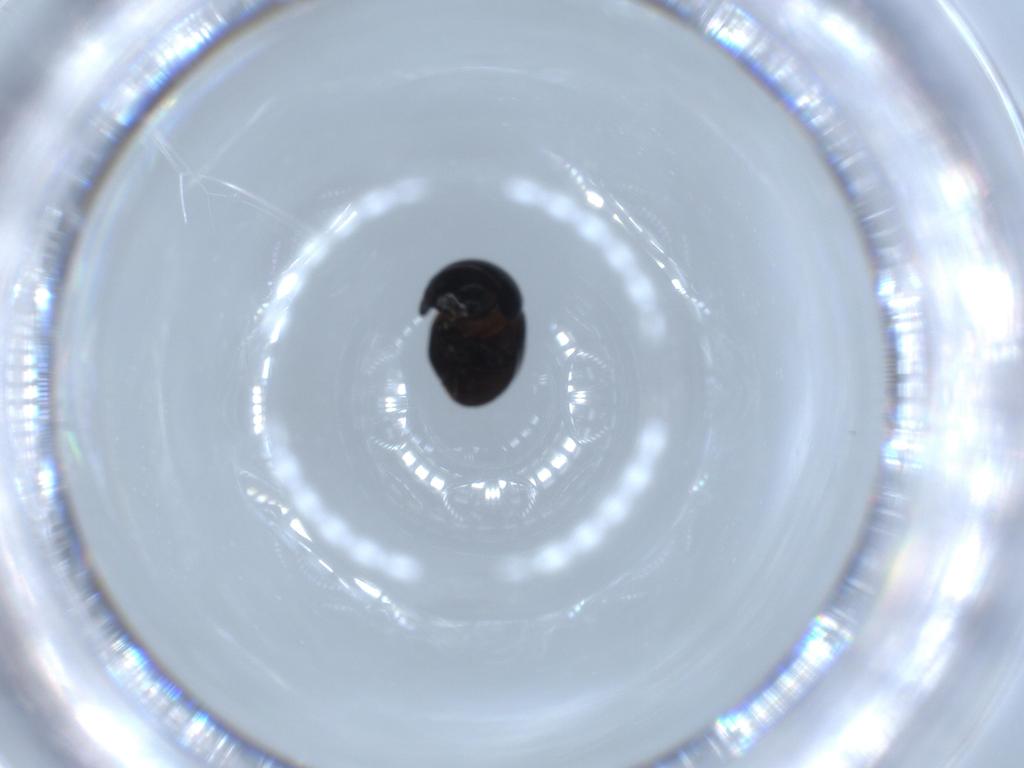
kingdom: Animalia
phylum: Arthropoda
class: Insecta
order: Coleoptera
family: Cybocephalidae
